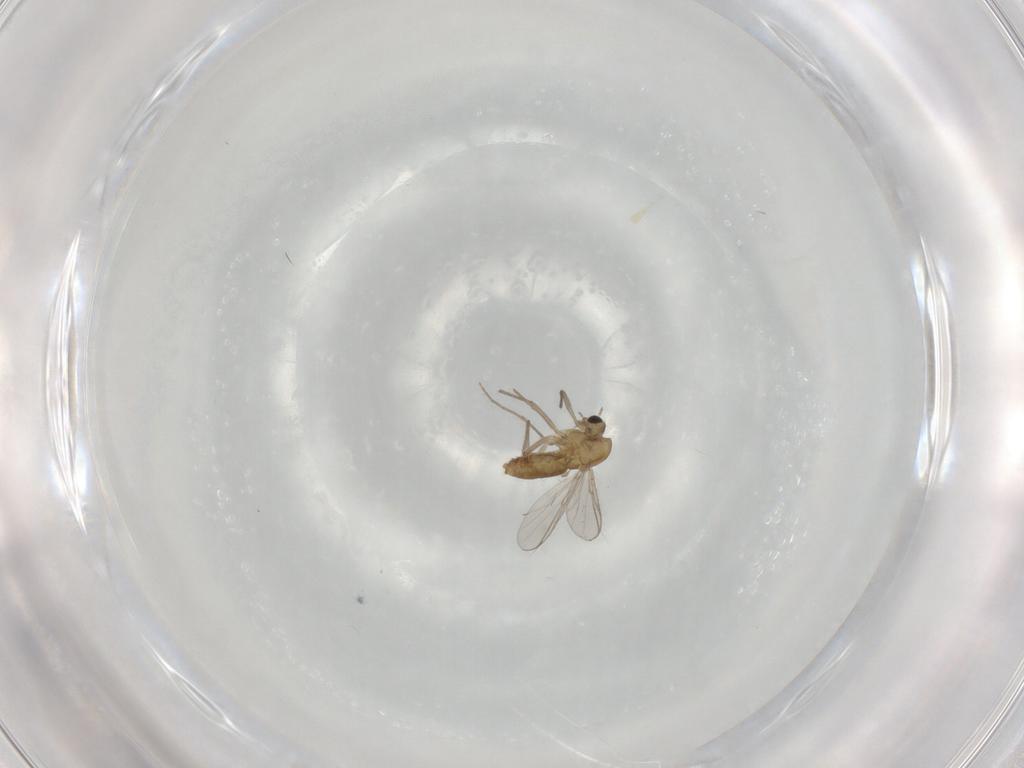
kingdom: Animalia
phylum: Arthropoda
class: Insecta
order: Diptera
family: Chironomidae
